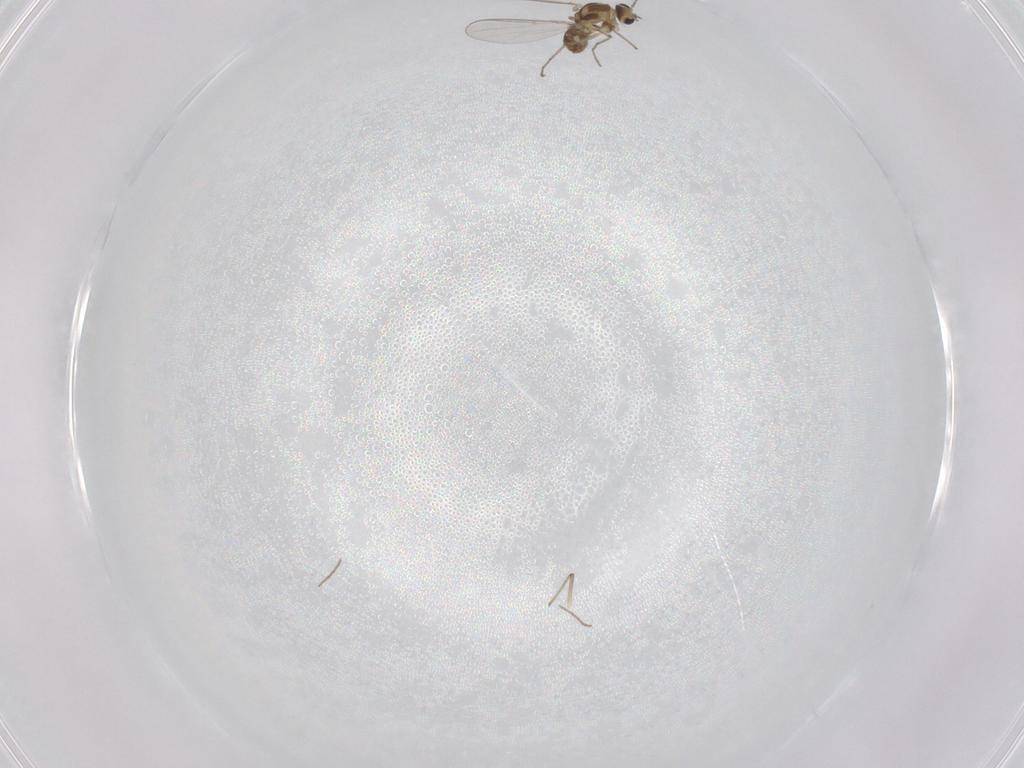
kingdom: Animalia
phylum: Arthropoda
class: Insecta
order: Diptera
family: Chironomidae
